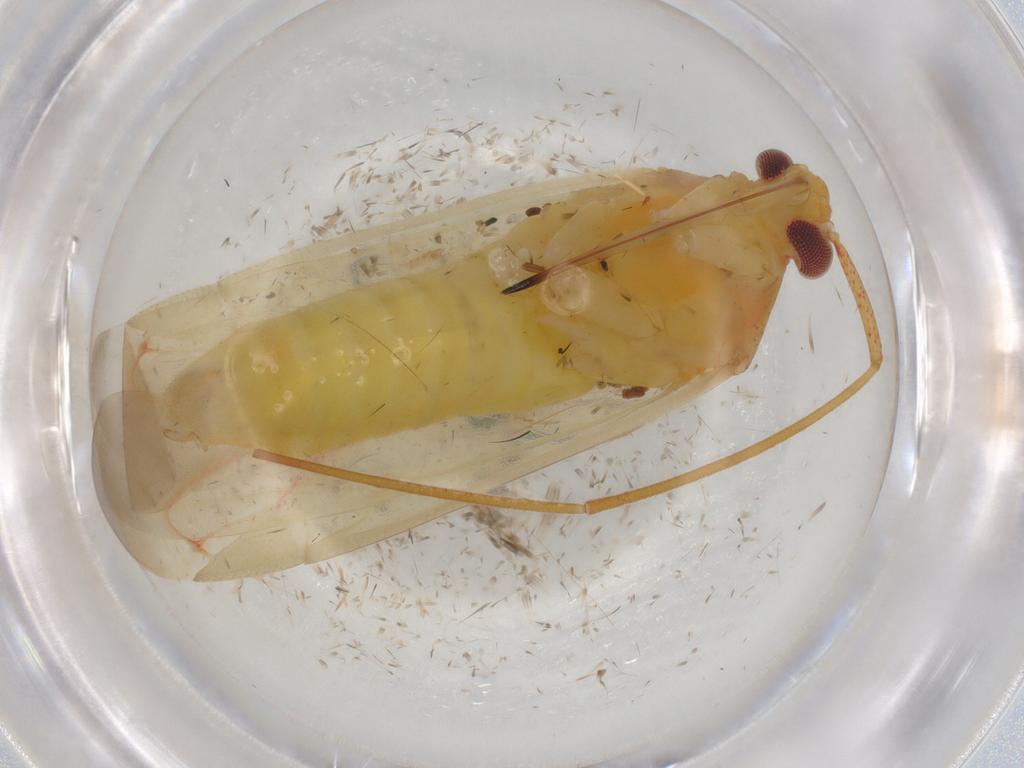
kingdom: Animalia
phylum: Arthropoda
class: Insecta
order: Hemiptera
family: Miridae
